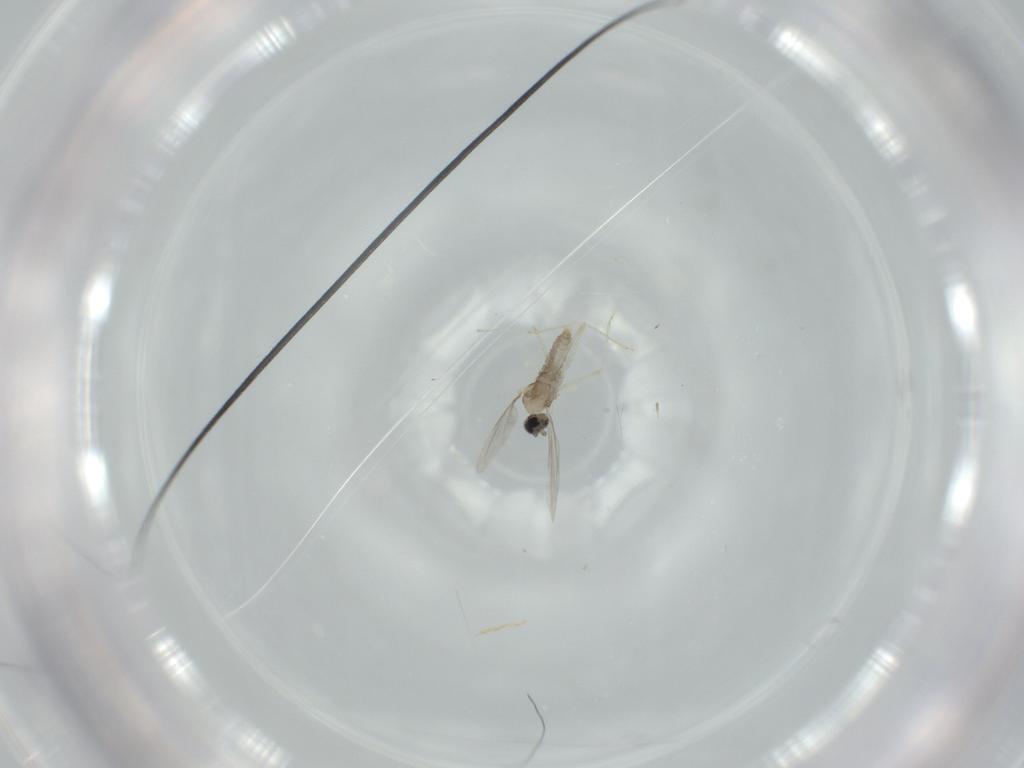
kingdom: Animalia
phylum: Arthropoda
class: Insecta
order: Diptera
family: Cecidomyiidae
